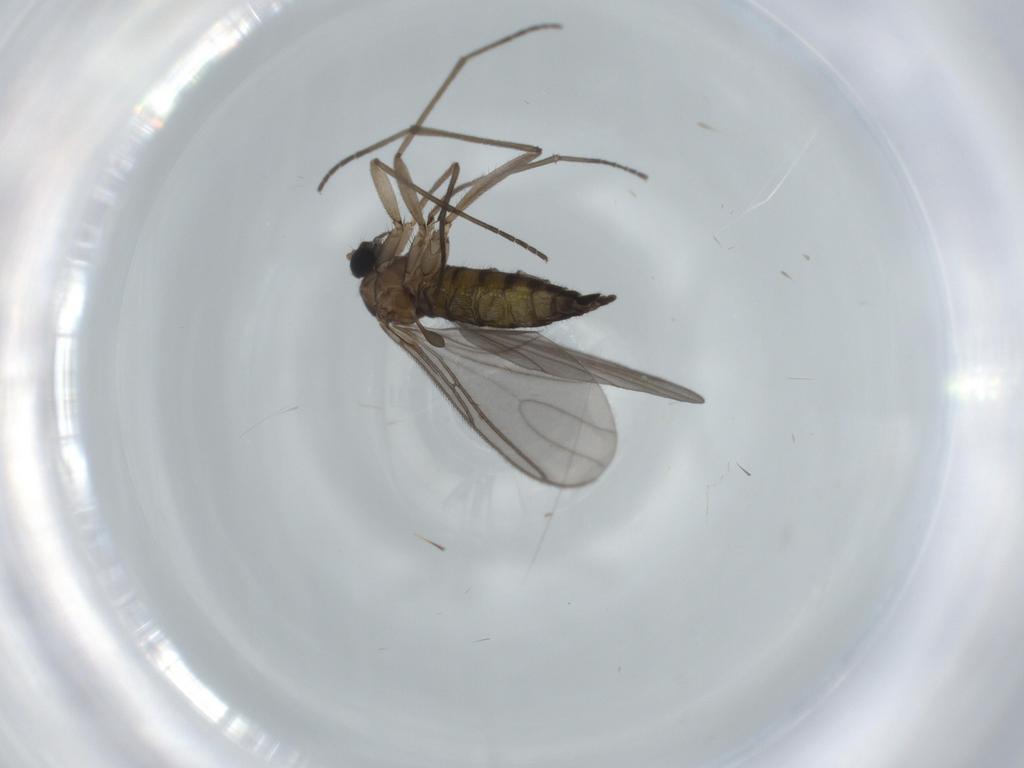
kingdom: Animalia
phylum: Arthropoda
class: Insecta
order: Diptera
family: Sciaridae
